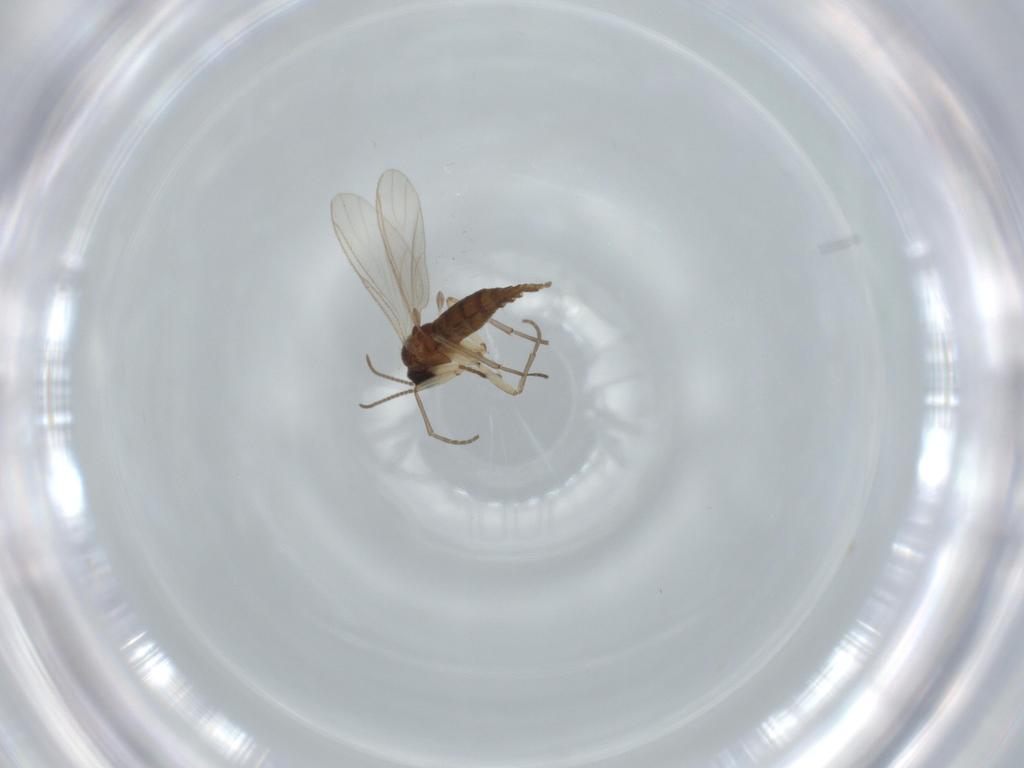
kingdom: Animalia
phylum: Arthropoda
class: Insecta
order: Diptera
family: Sciaridae
